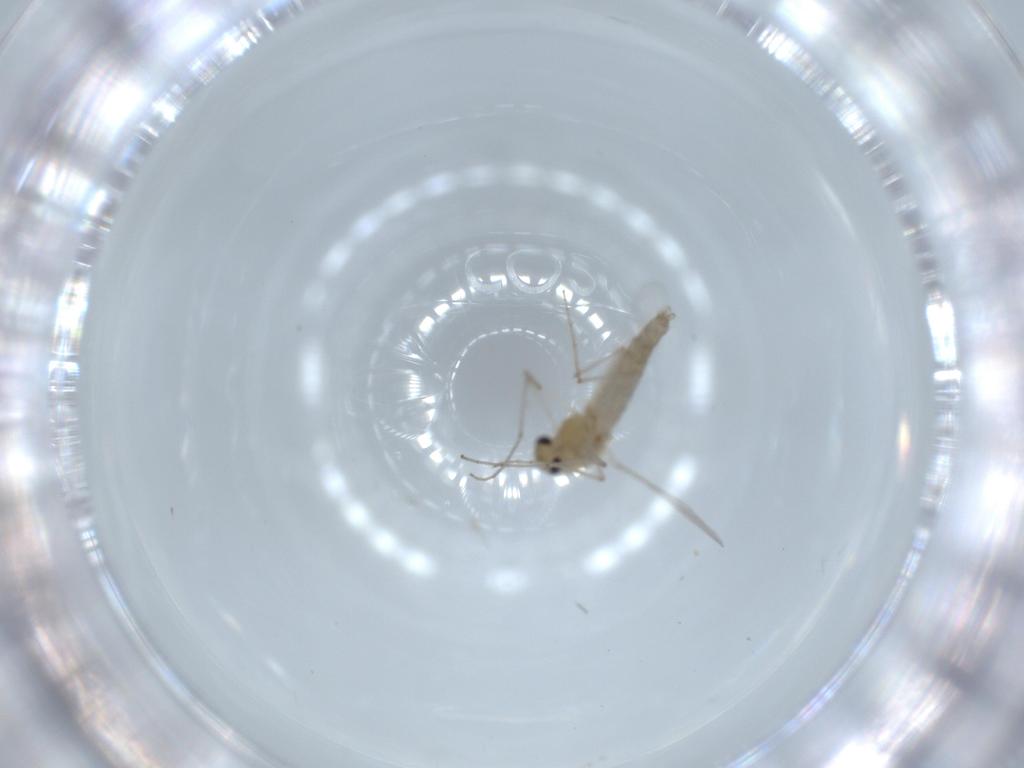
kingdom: Animalia
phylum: Arthropoda
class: Insecta
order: Diptera
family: Chironomidae
